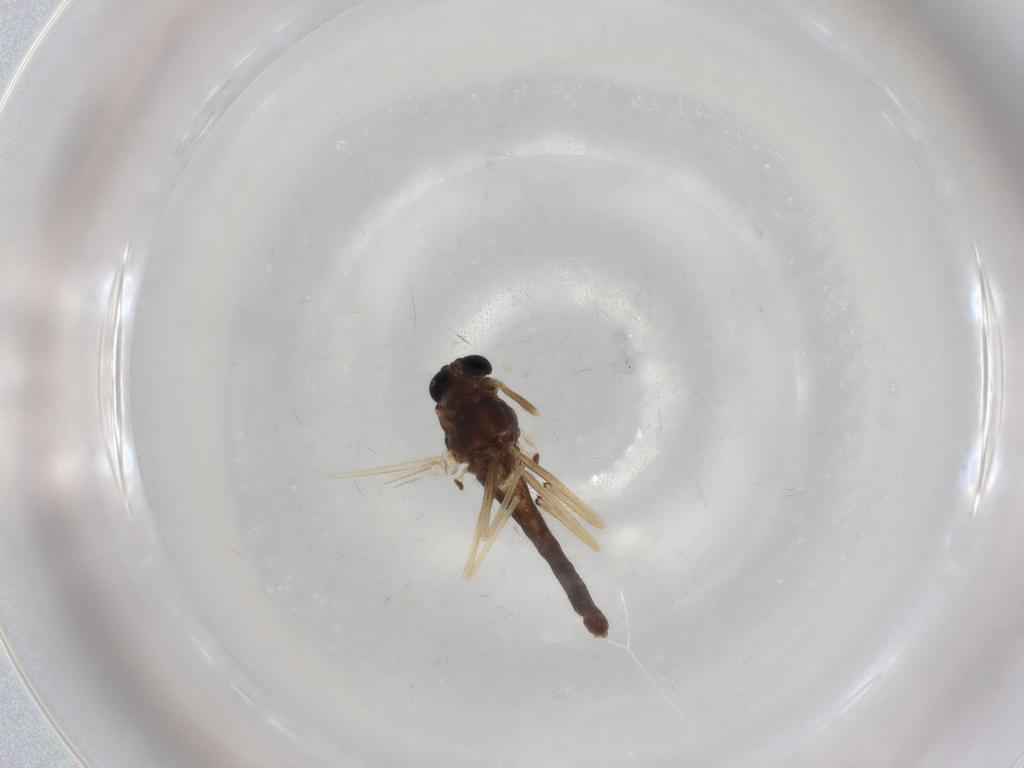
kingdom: Animalia
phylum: Arthropoda
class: Insecta
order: Diptera
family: Chironomidae
